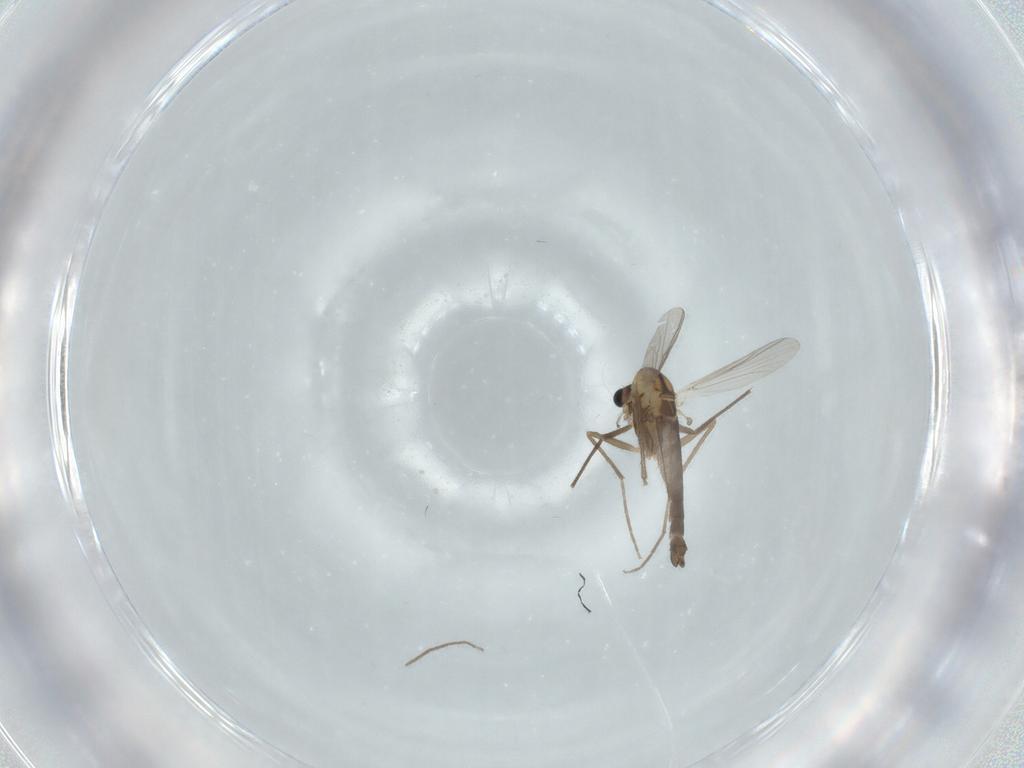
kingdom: Animalia
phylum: Arthropoda
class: Insecta
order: Diptera
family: Chironomidae
